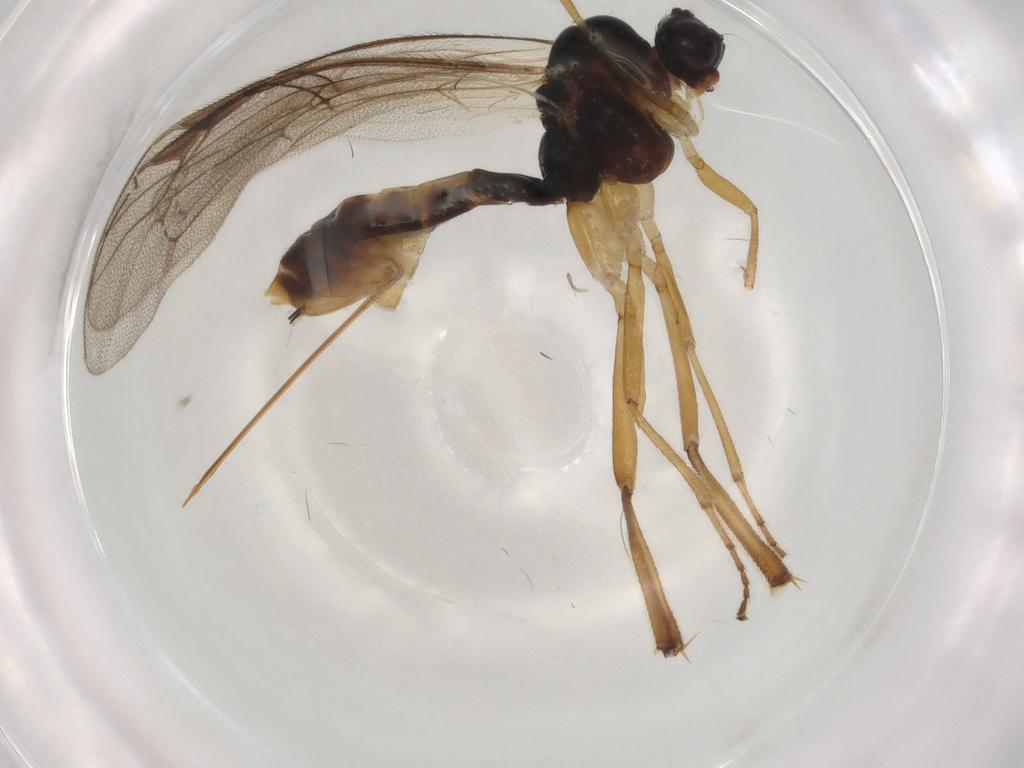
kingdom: Animalia
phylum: Arthropoda
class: Insecta
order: Hymenoptera
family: Ichneumonidae
